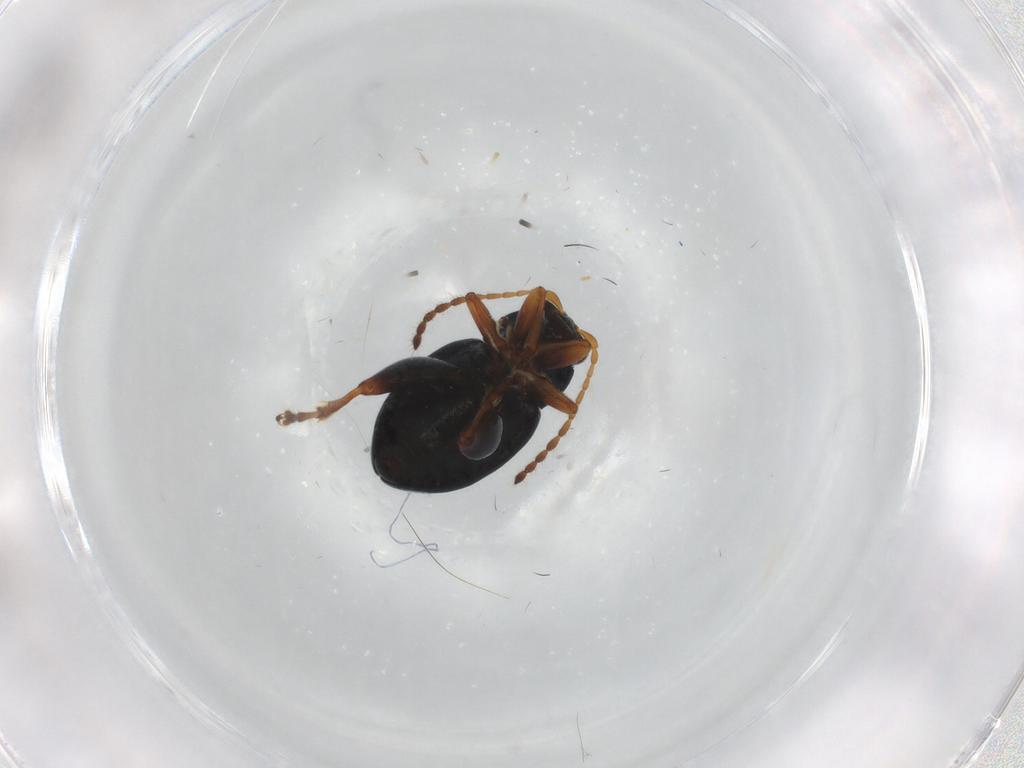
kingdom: Animalia
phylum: Arthropoda
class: Insecta
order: Coleoptera
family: Chrysomelidae
